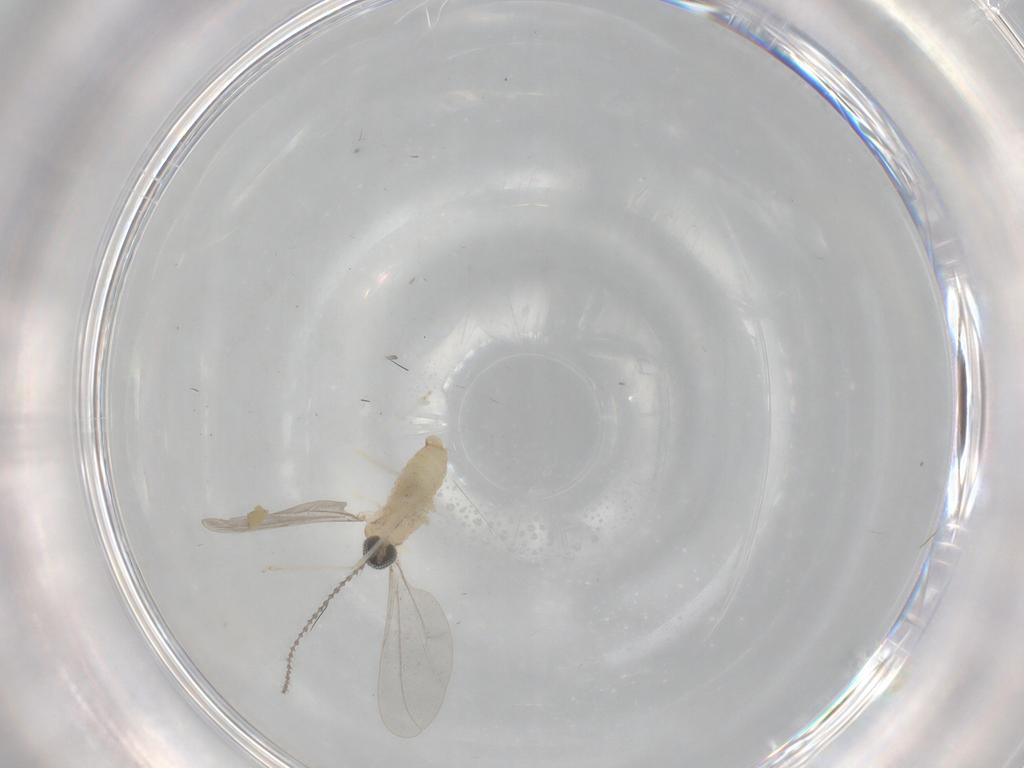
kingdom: Animalia
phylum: Arthropoda
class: Insecta
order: Diptera
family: Cecidomyiidae
